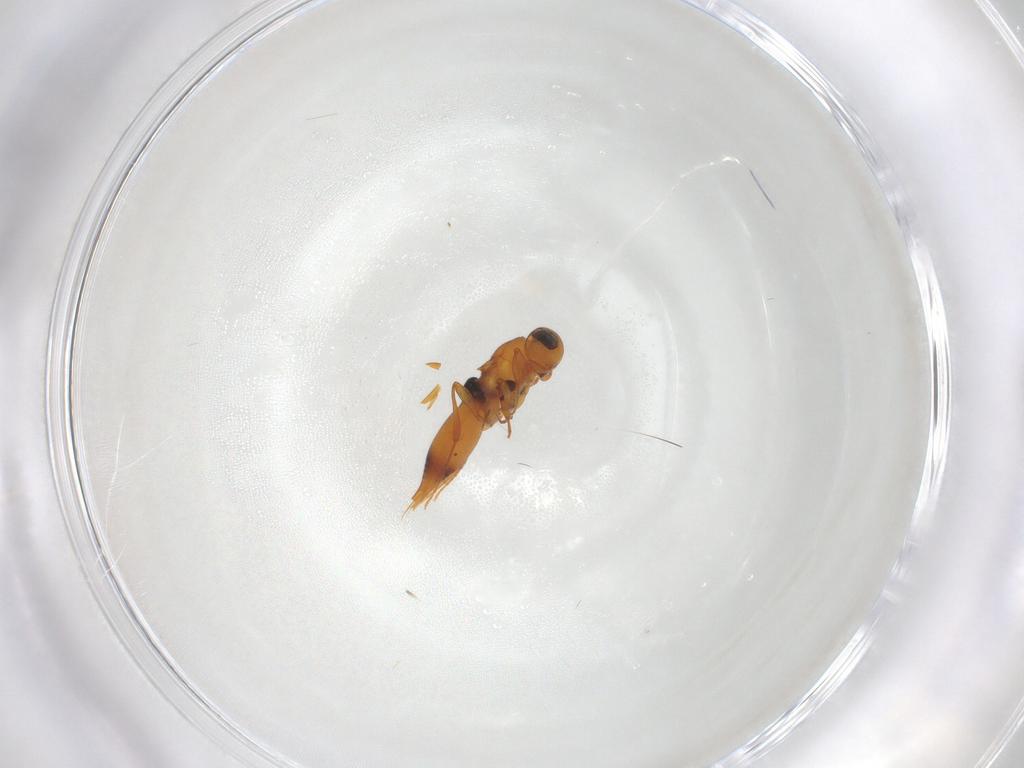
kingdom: Animalia
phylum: Arthropoda
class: Insecta
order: Hymenoptera
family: Platygastridae
